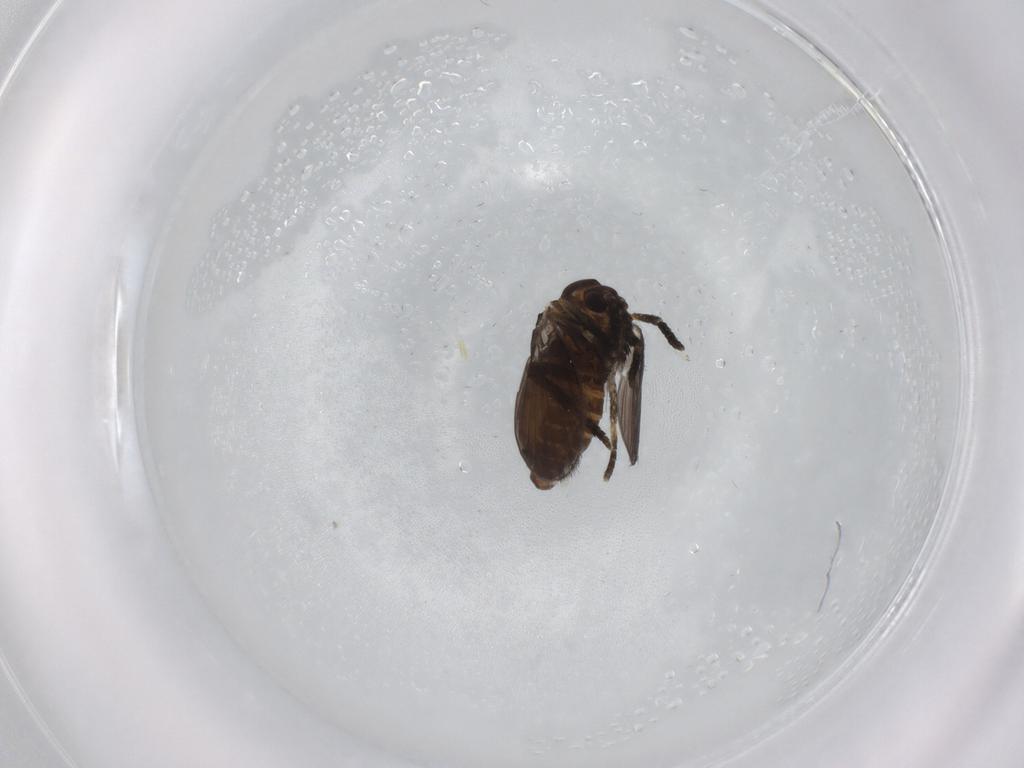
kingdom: Animalia
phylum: Arthropoda
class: Insecta
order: Diptera
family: Psychodidae
